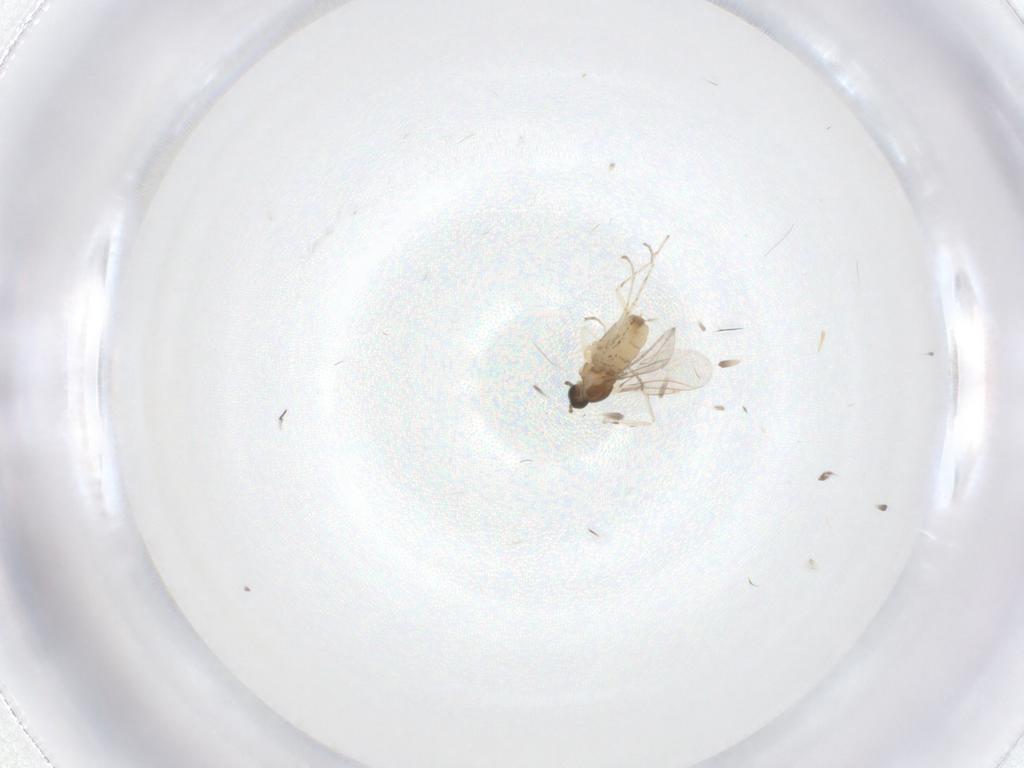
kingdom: Animalia
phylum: Arthropoda
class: Insecta
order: Diptera
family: Cecidomyiidae
